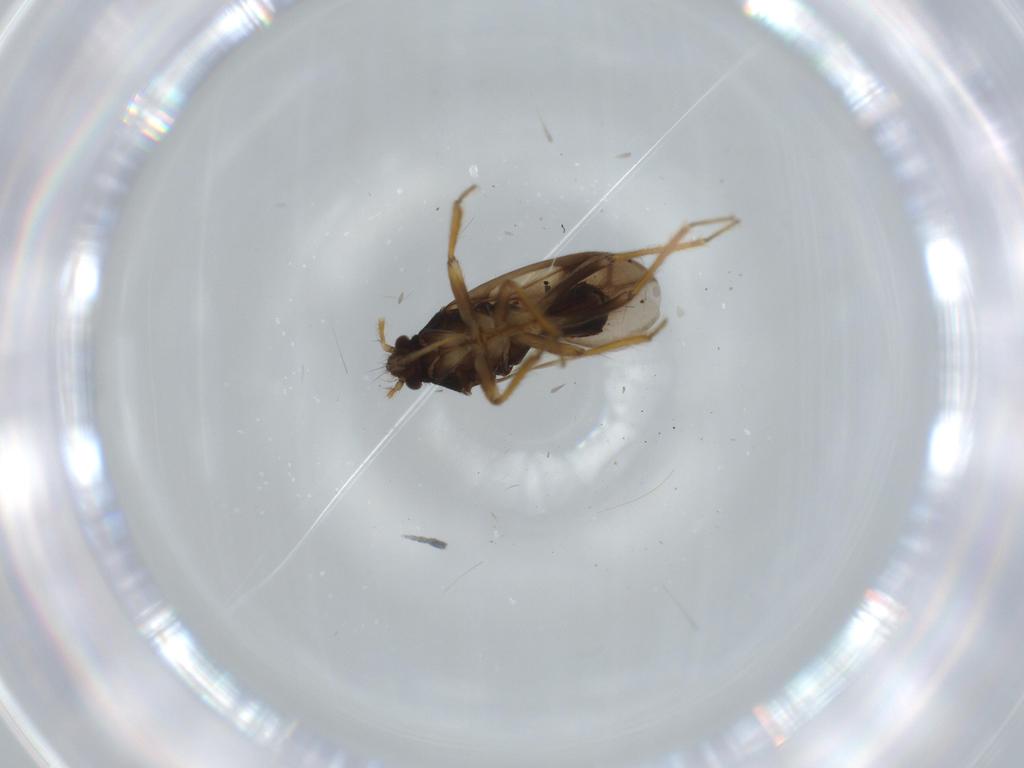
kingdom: Animalia
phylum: Arthropoda
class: Insecta
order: Hemiptera
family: Ceratocombidae
